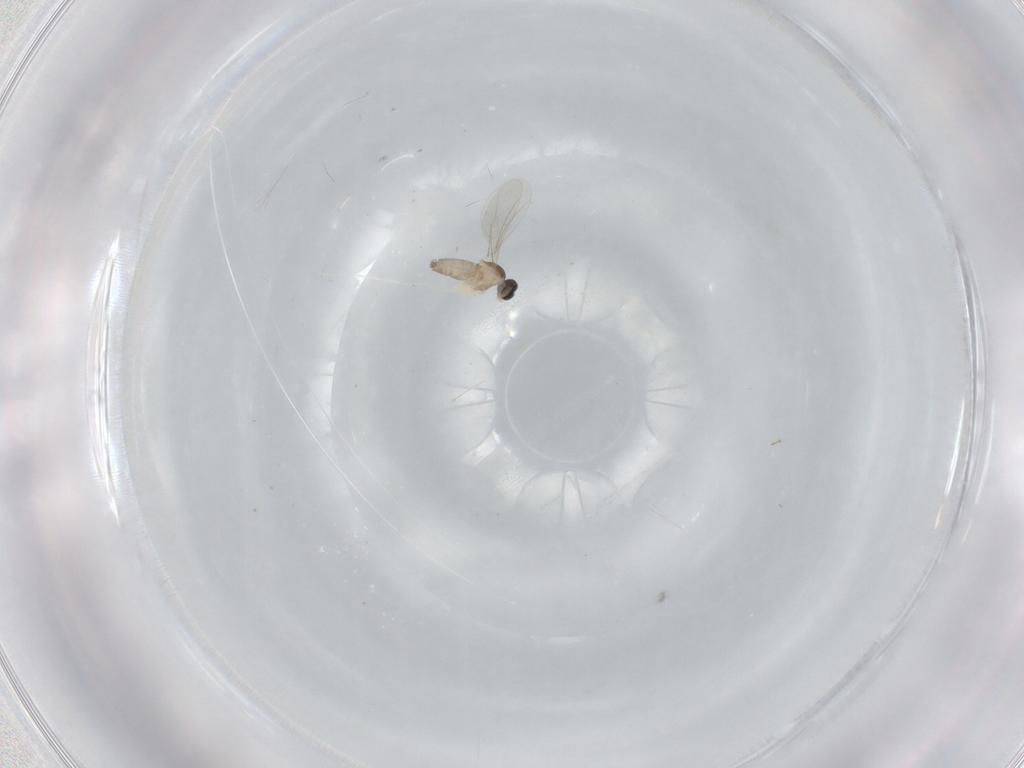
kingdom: Animalia
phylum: Arthropoda
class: Insecta
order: Diptera
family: Cecidomyiidae
